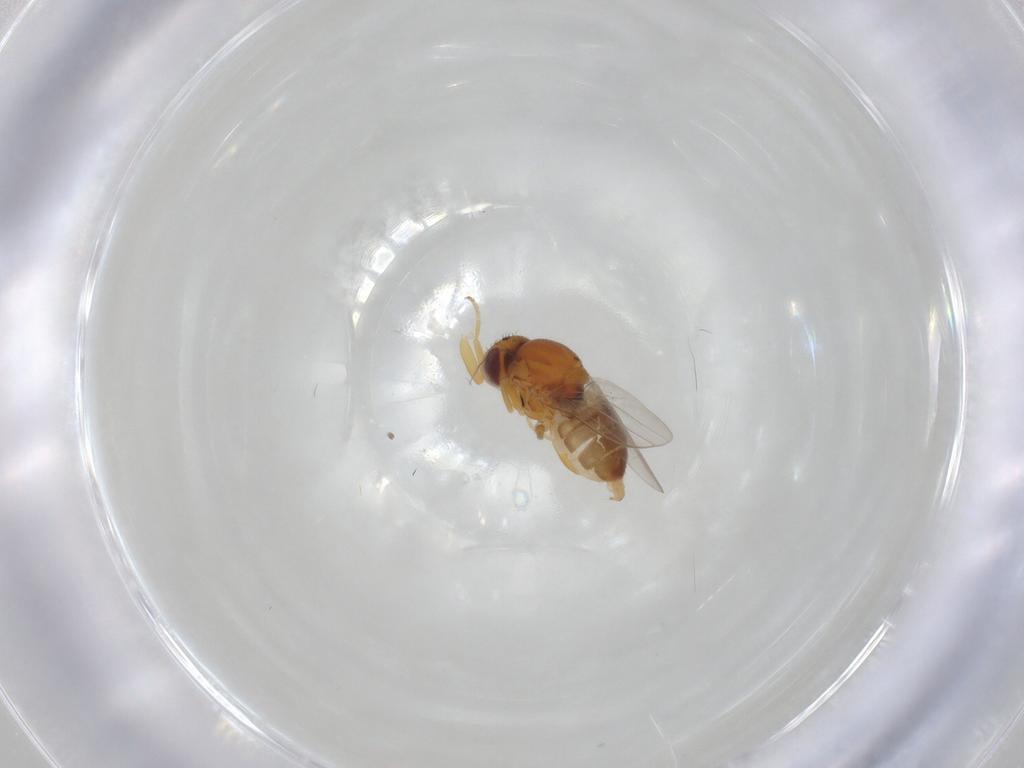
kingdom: Animalia
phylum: Arthropoda
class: Insecta
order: Diptera
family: Chloropidae
